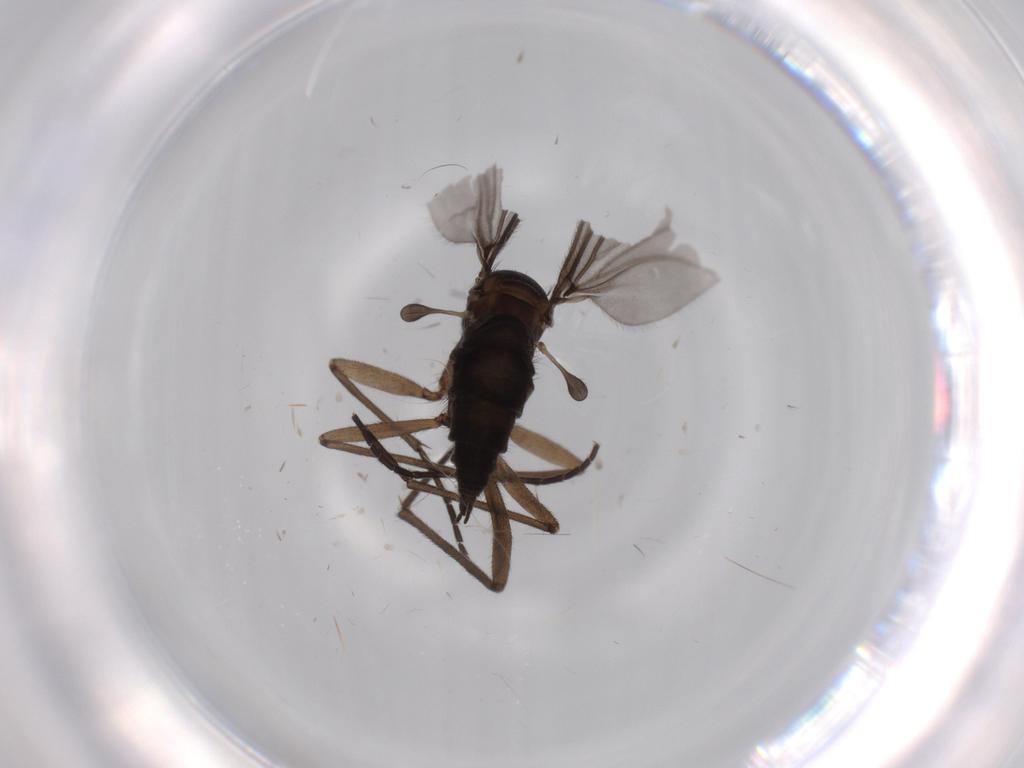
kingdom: Animalia
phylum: Arthropoda
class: Insecta
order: Diptera
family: Sciaridae
